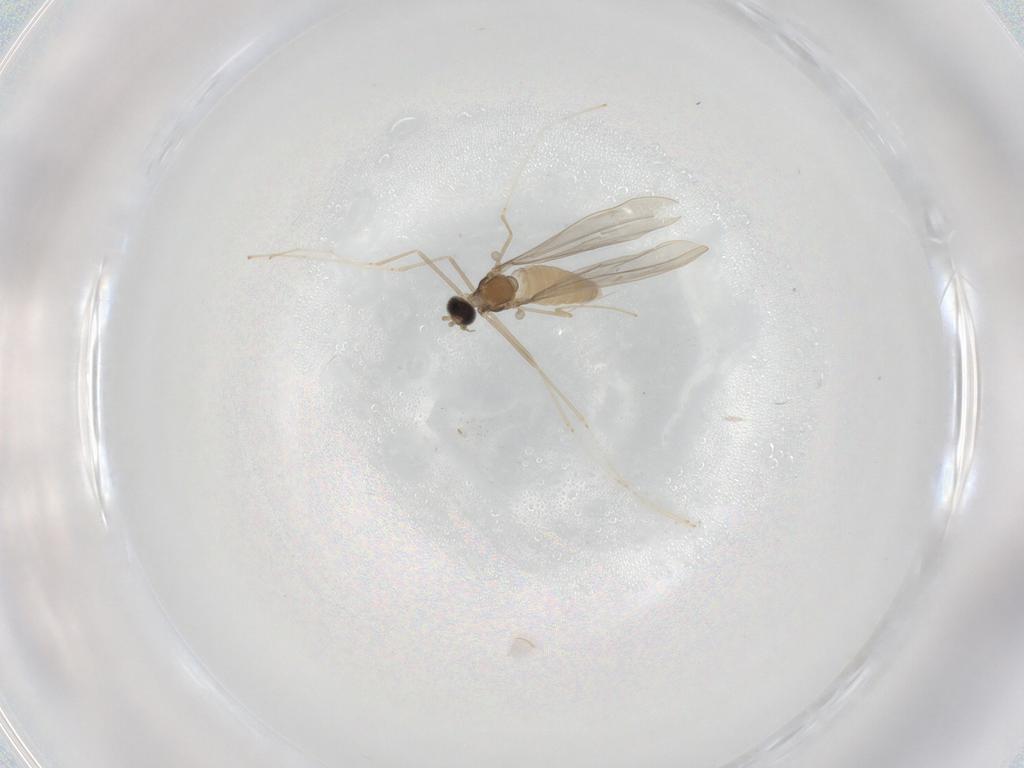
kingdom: Animalia
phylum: Arthropoda
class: Insecta
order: Diptera
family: Cecidomyiidae
